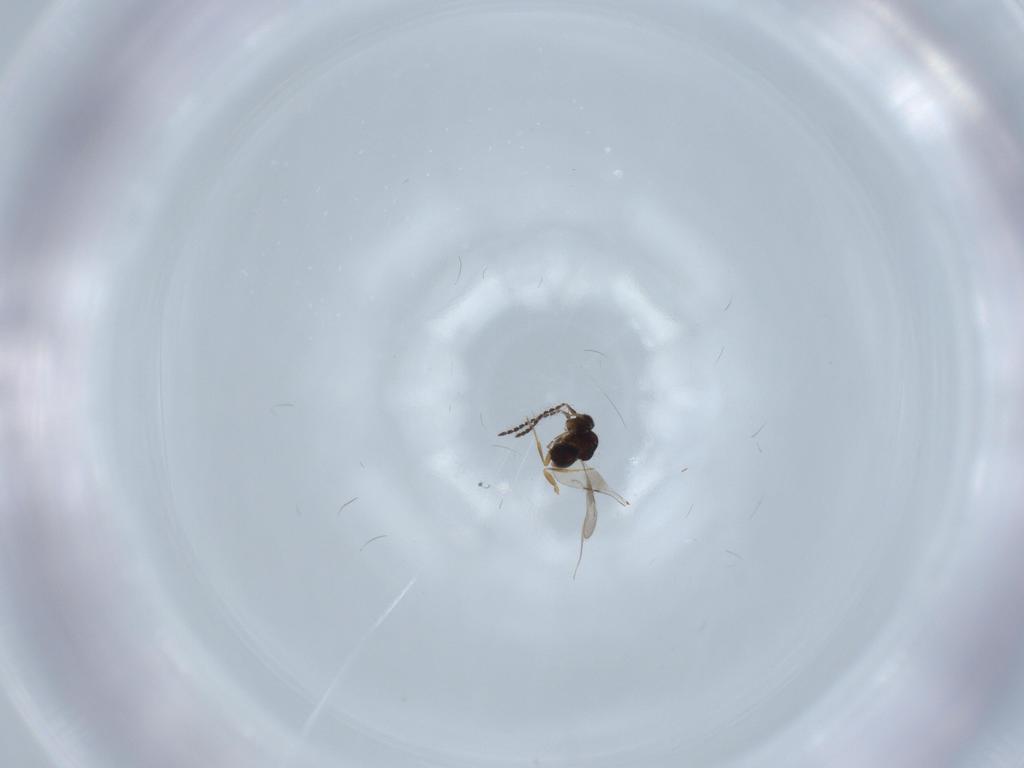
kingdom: Animalia
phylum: Arthropoda
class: Insecta
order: Hymenoptera
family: Ceraphronidae
